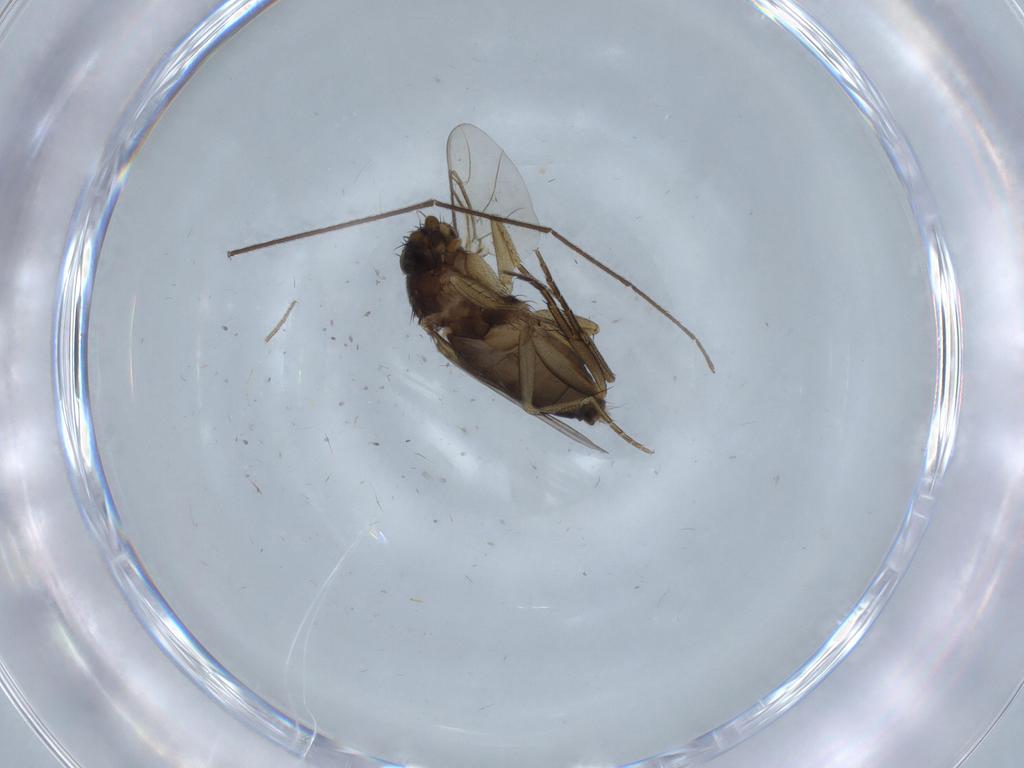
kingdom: Animalia
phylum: Arthropoda
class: Insecta
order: Diptera
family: Phoridae
